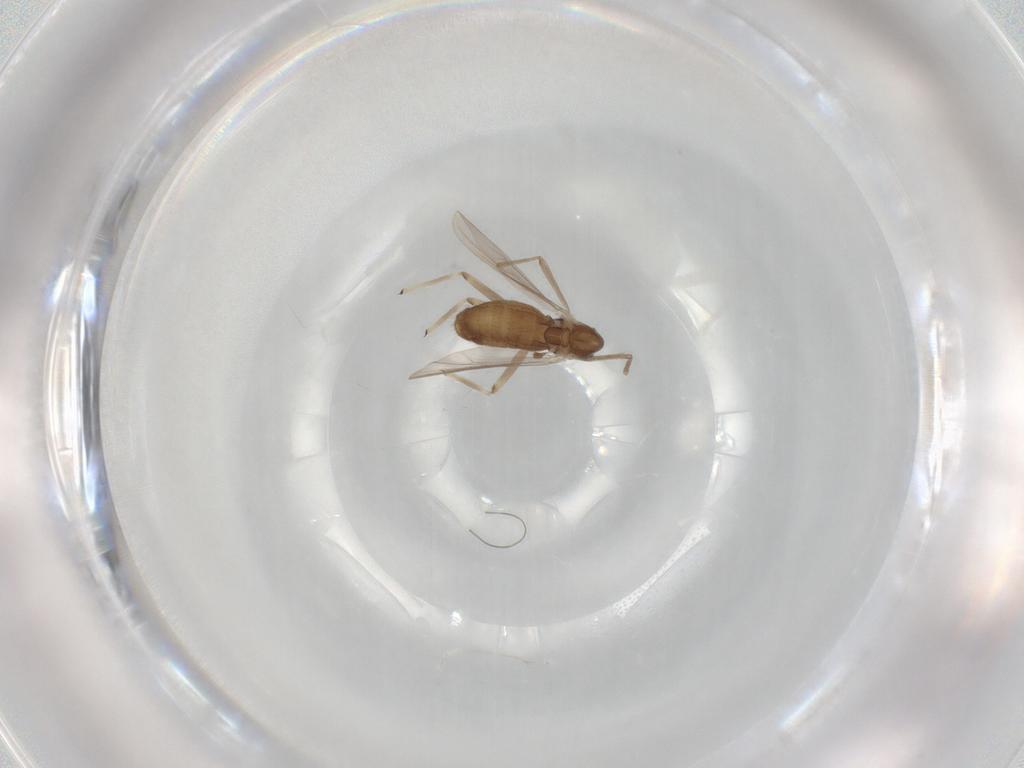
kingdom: Animalia
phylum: Arthropoda
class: Insecta
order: Diptera
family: Chironomidae
